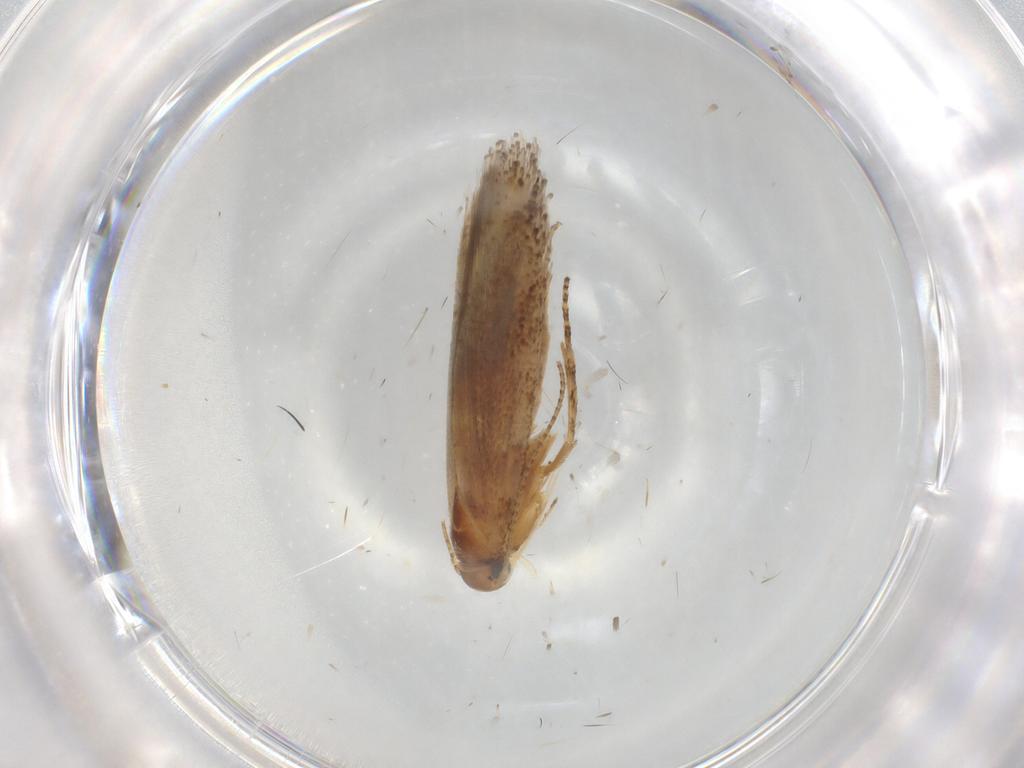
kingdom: Animalia
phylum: Arthropoda
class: Insecta
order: Lepidoptera
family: Gelechiidae
